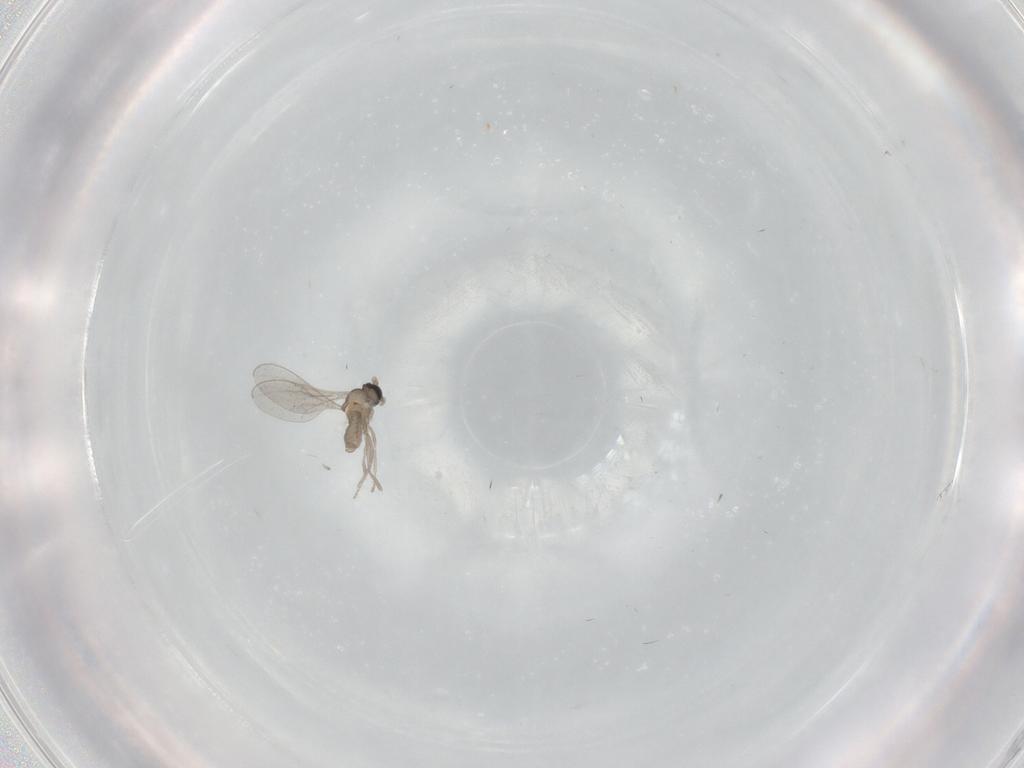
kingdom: Animalia
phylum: Arthropoda
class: Insecta
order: Diptera
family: Cecidomyiidae
